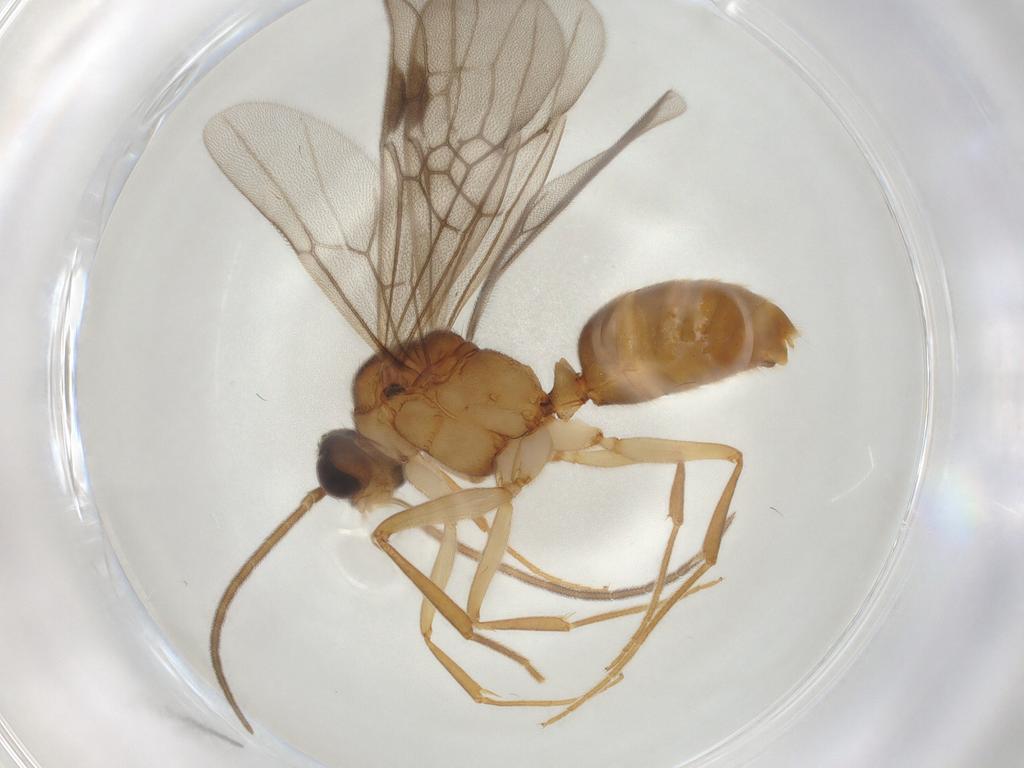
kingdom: Animalia
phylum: Arthropoda
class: Insecta
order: Hymenoptera
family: Formicidae
